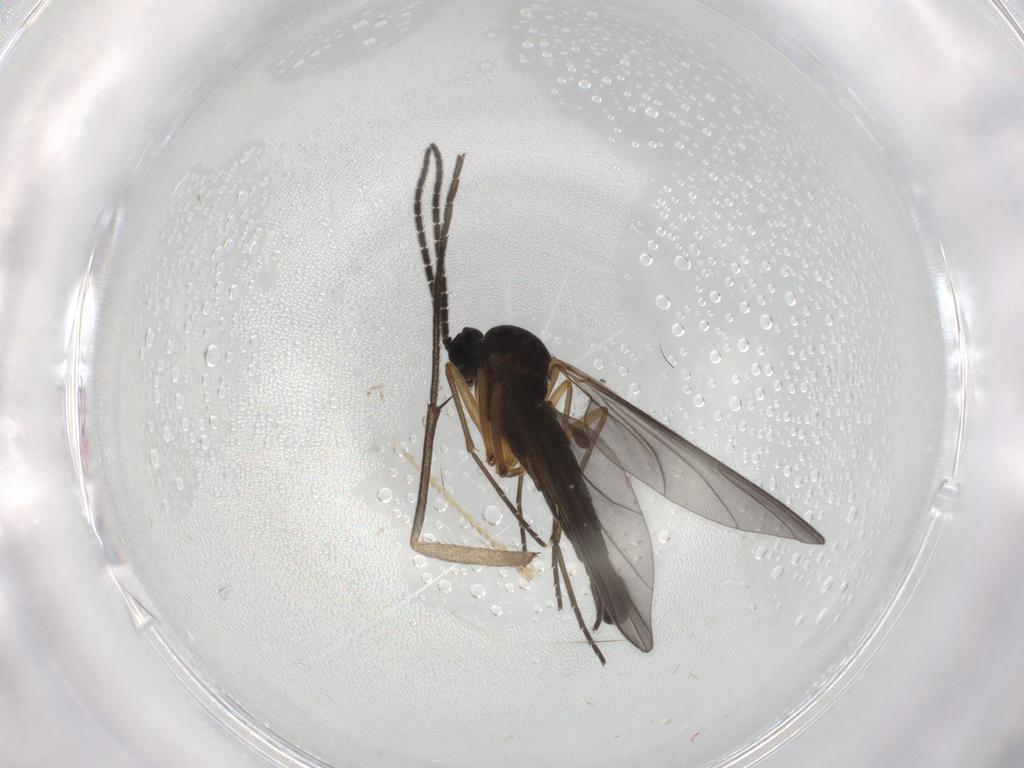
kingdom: Animalia
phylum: Arthropoda
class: Insecta
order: Diptera
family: Sciaridae
